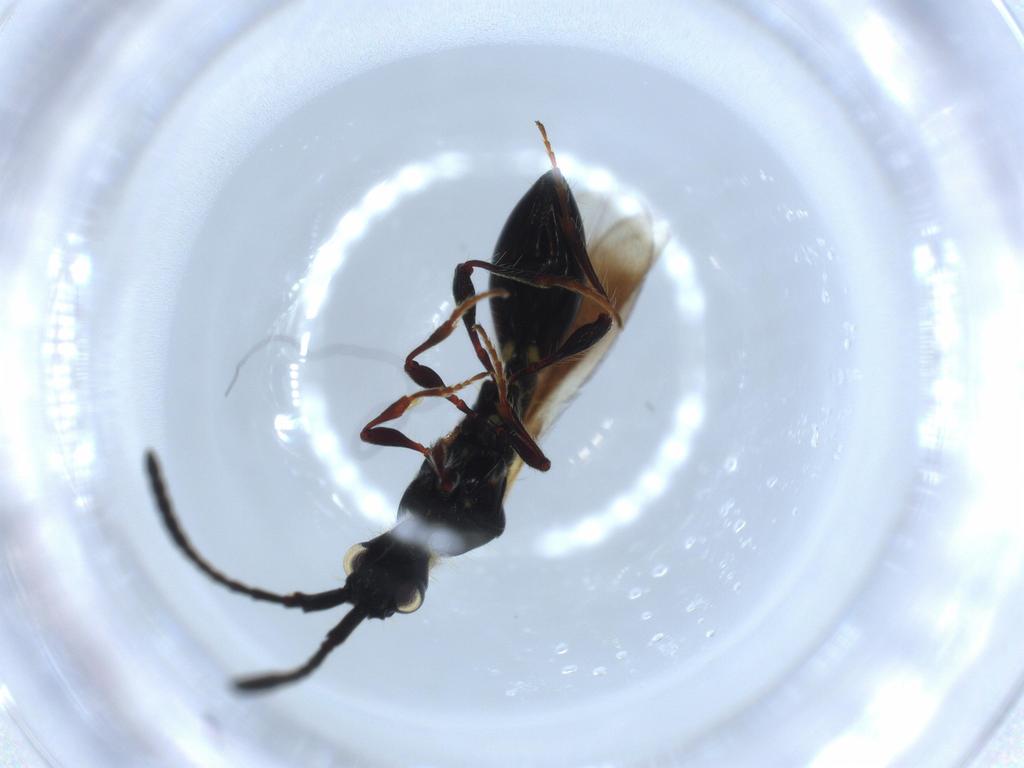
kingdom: Animalia
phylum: Arthropoda
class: Insecta
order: Hymenoptera
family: Diapriidae
